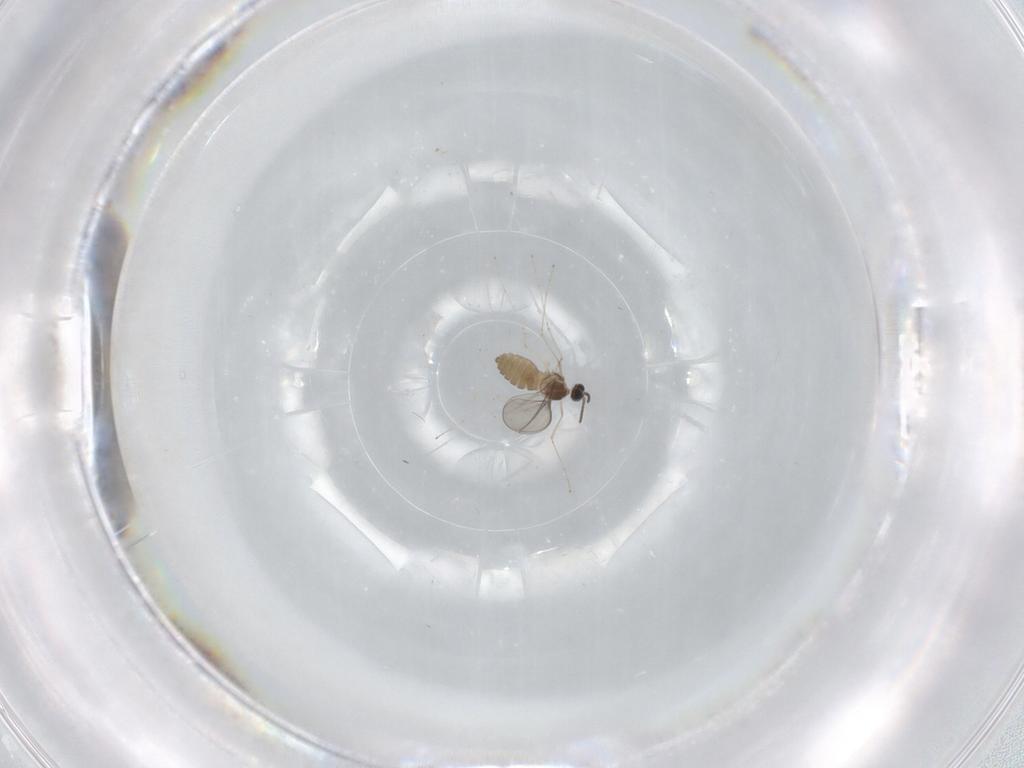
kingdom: Animalia
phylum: Arthropoda
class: Insecta
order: Diptera
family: Cecidomyiidae
